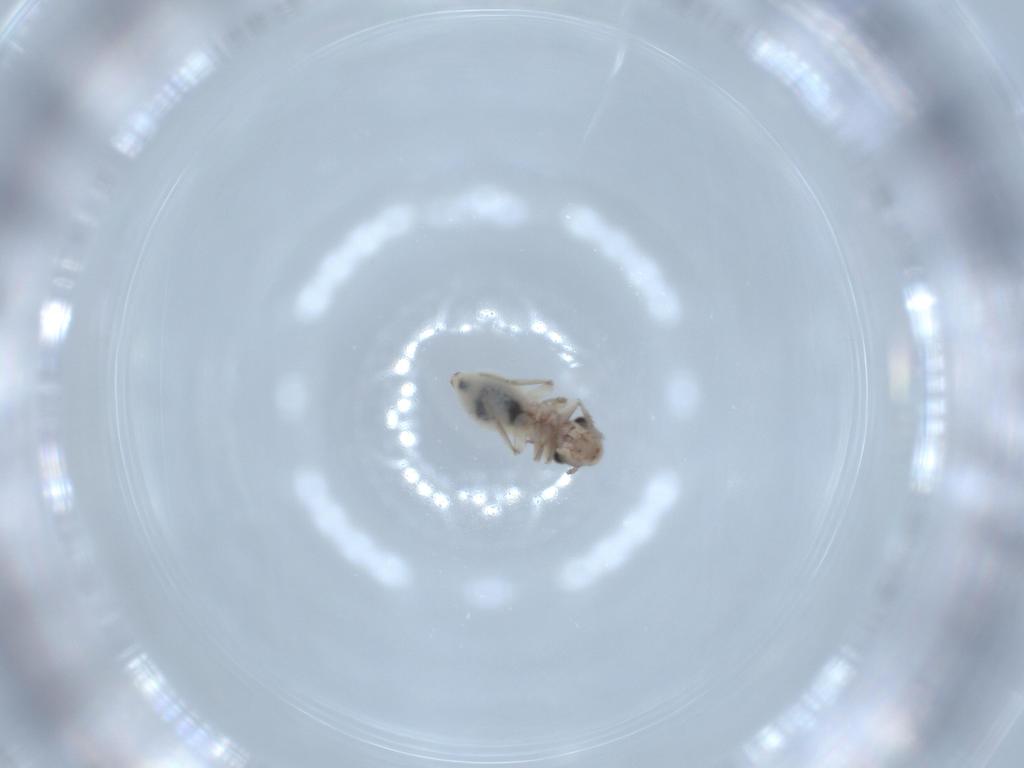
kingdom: Animalia
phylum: Arthropoda
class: Insecta
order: Psocodea
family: Lepidopsocidae
